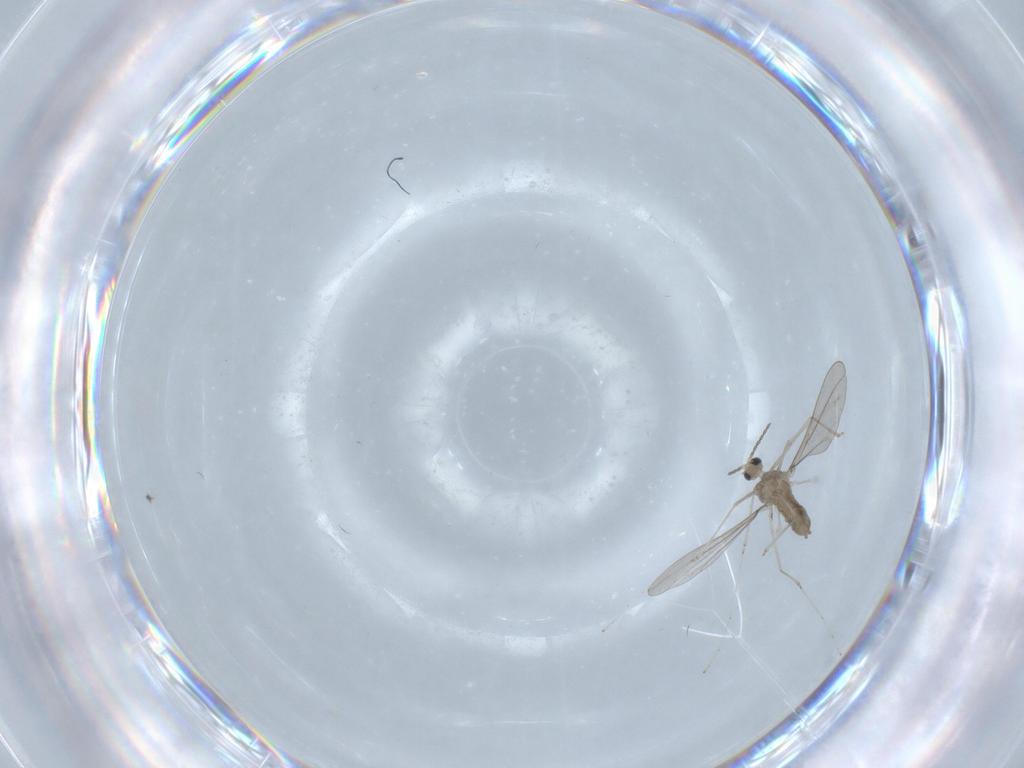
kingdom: Animalia
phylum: Arthropoda
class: Insecta
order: Diptera
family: Cecidomyiidae
